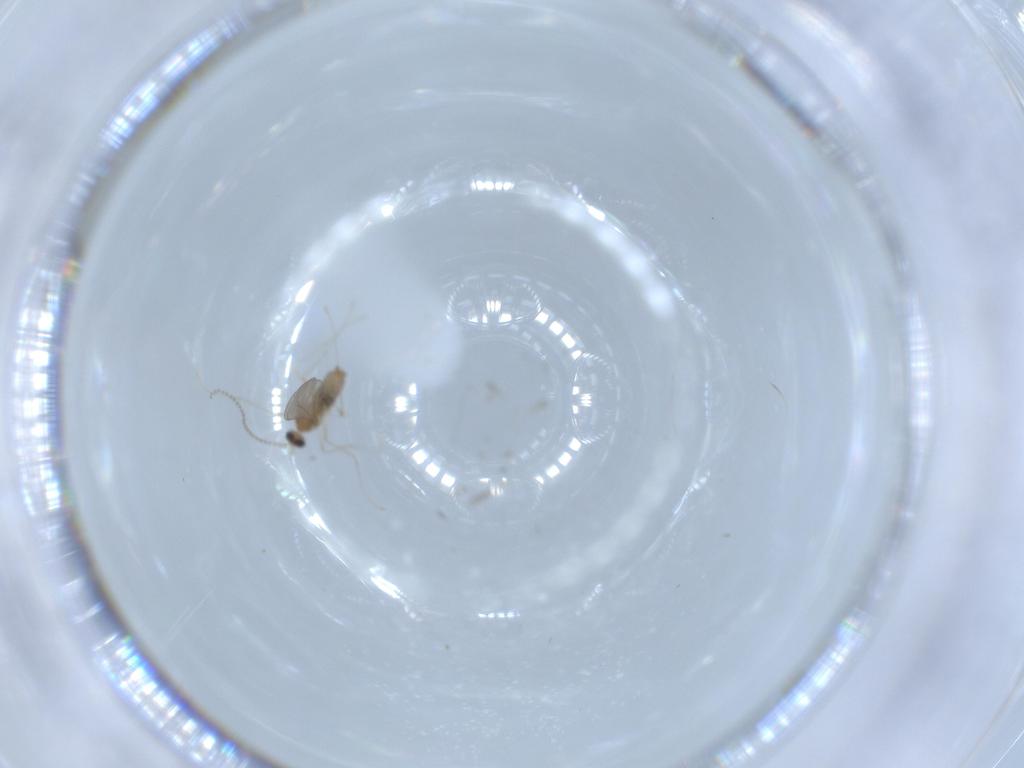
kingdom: Animalia
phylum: Arthropoda
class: Insecta
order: Diptera
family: Cecidomyiidae
